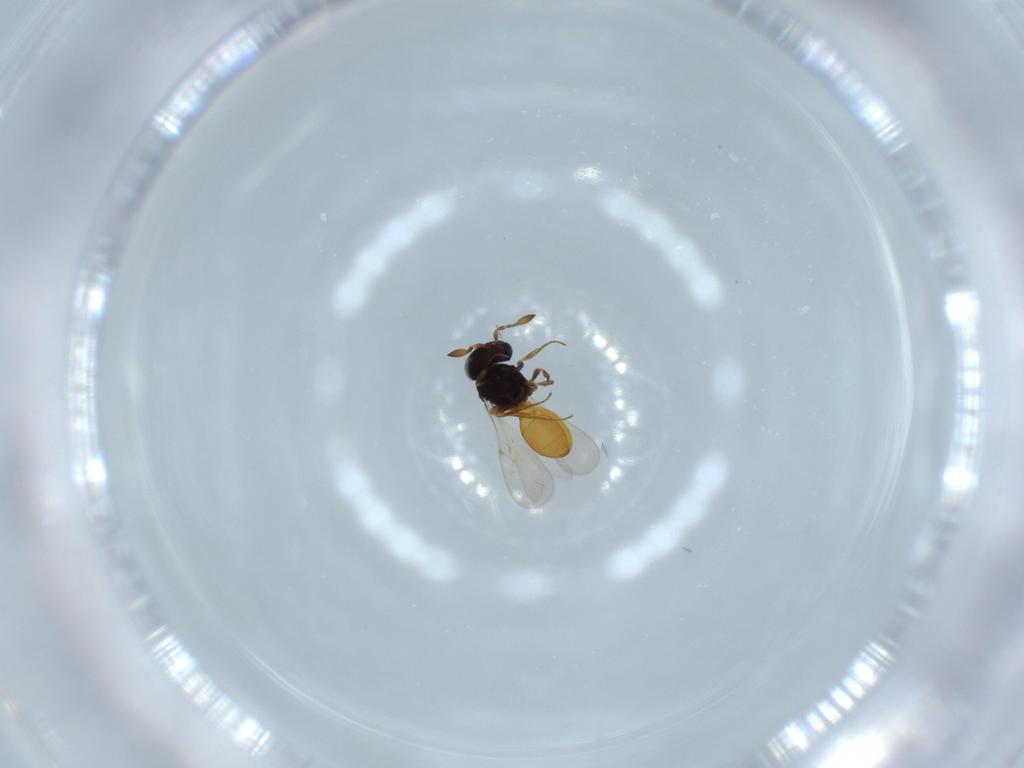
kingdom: Animalia
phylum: Arthropoda
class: Insecta
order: Hymenoptera
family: Scelionidae
